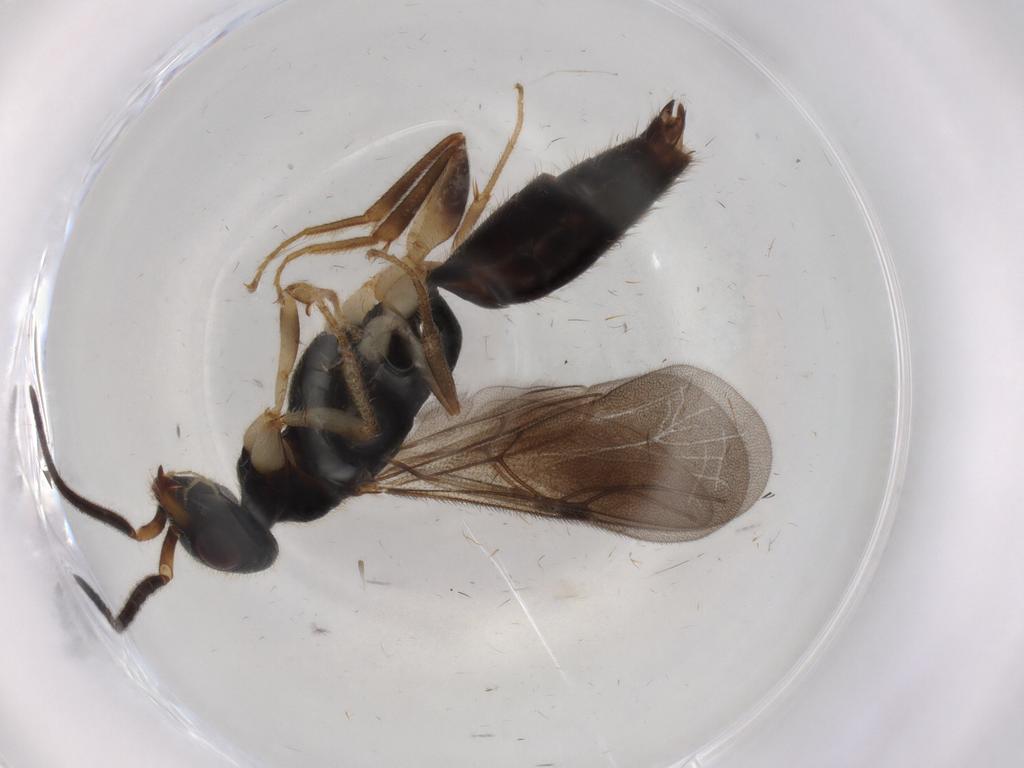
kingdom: Animalia
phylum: Arthropoda
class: Insecta
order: Hymenoptera
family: Bethylidae
